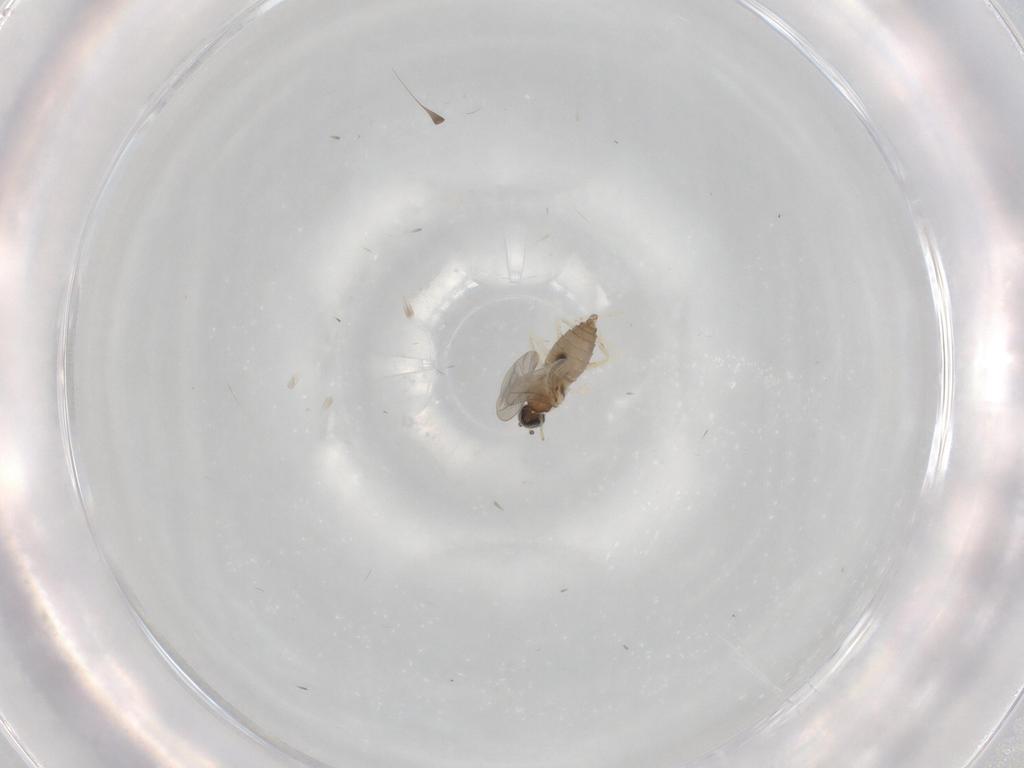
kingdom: Animalia
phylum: Arthropoda
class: Insecta
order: Diptera
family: Cecidomyiidae
